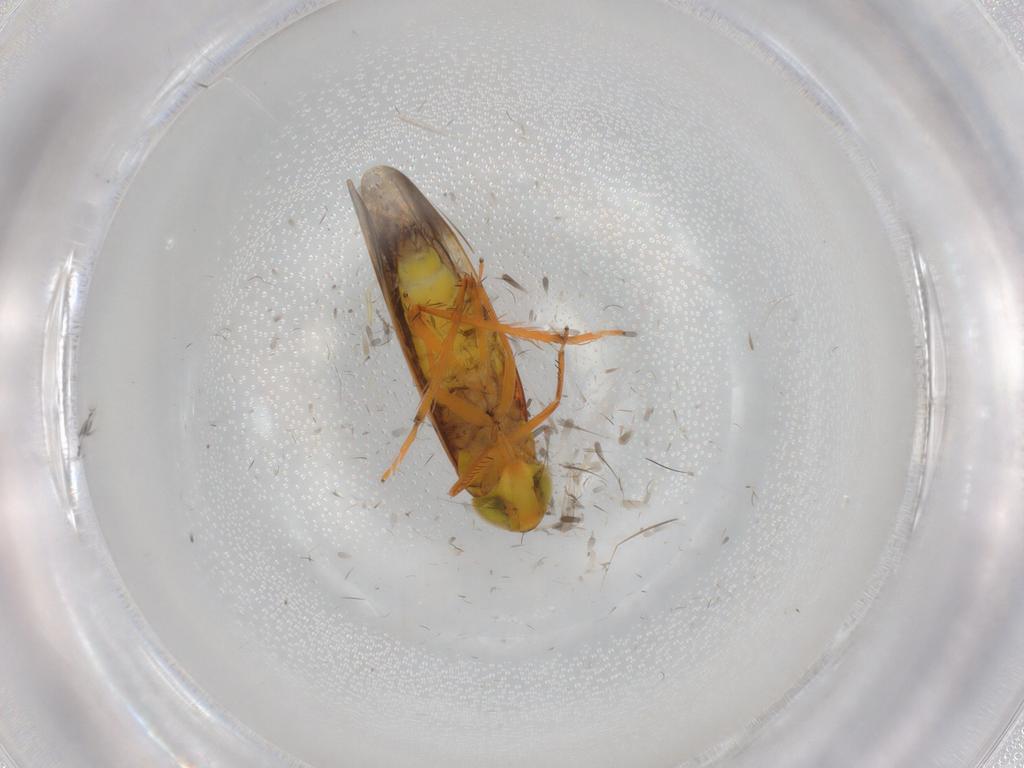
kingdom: Animalia
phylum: Arthropoda
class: Insecta
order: Hemiptera
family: Cicadellidae
